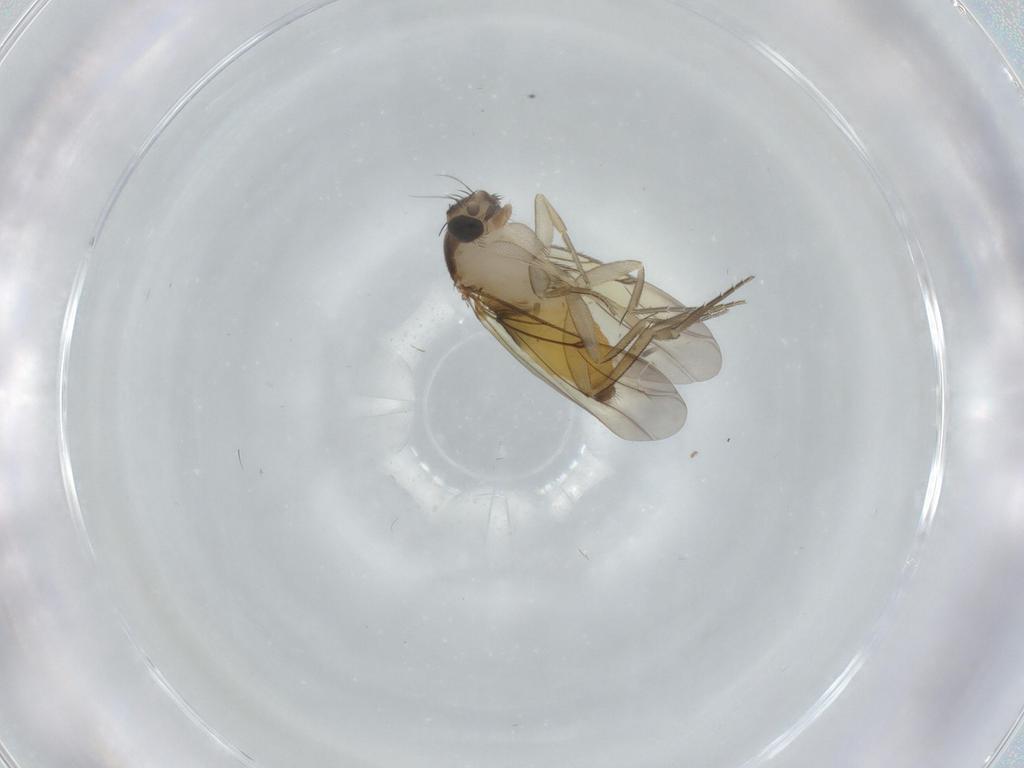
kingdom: Animalia
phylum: Arthropoda
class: Insecta
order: Diptera
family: Phoridae
